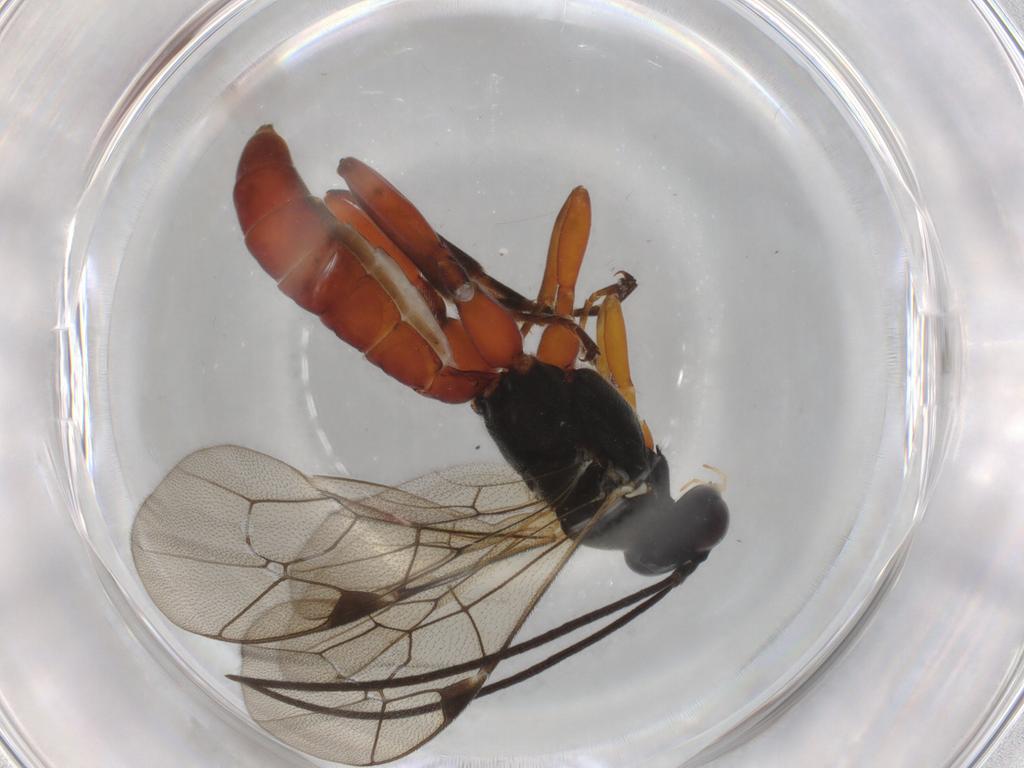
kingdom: Animalia
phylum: Arthropoda
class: Insecta
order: Hymenoptera
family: Ichneumonidae
